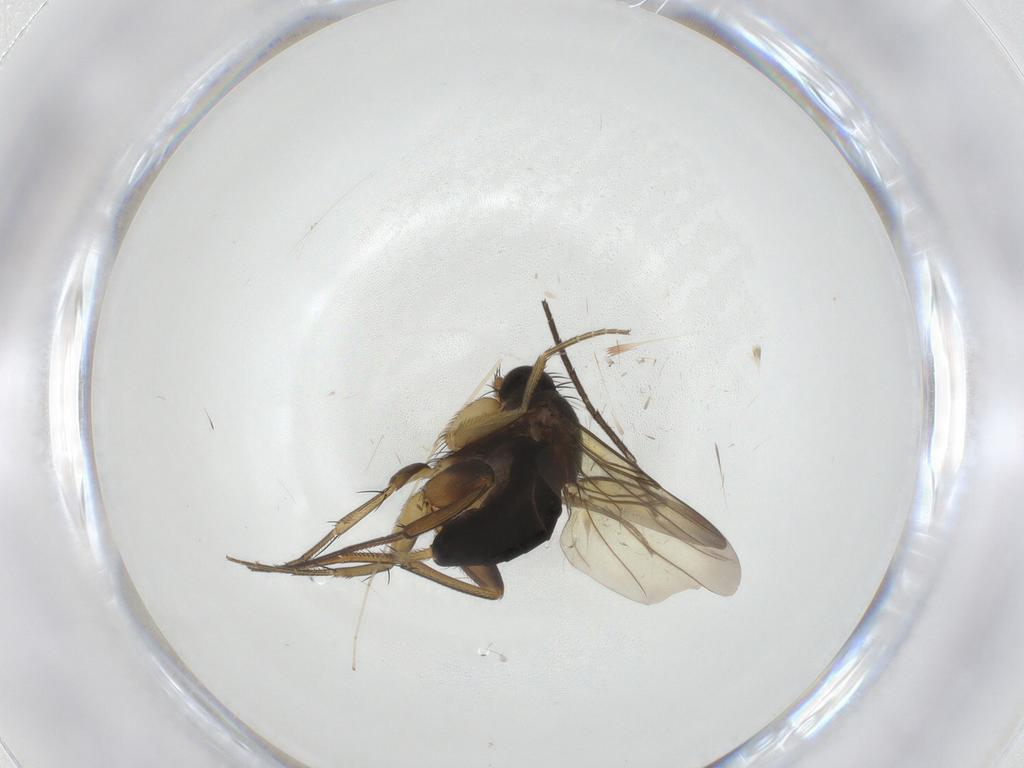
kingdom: Animalia
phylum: Arthropoda
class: Insecta
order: Diptera
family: Phoridae
